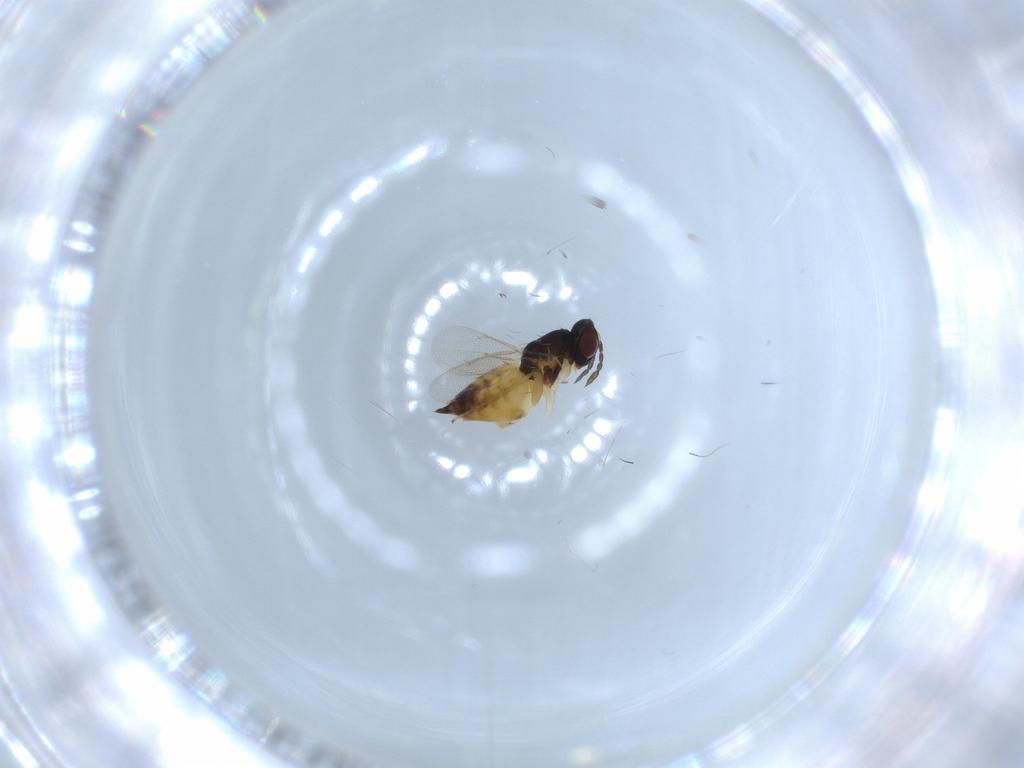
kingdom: Animalia
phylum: Arthropoda
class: Insecta
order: Hymenoptera
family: Eulophidae
